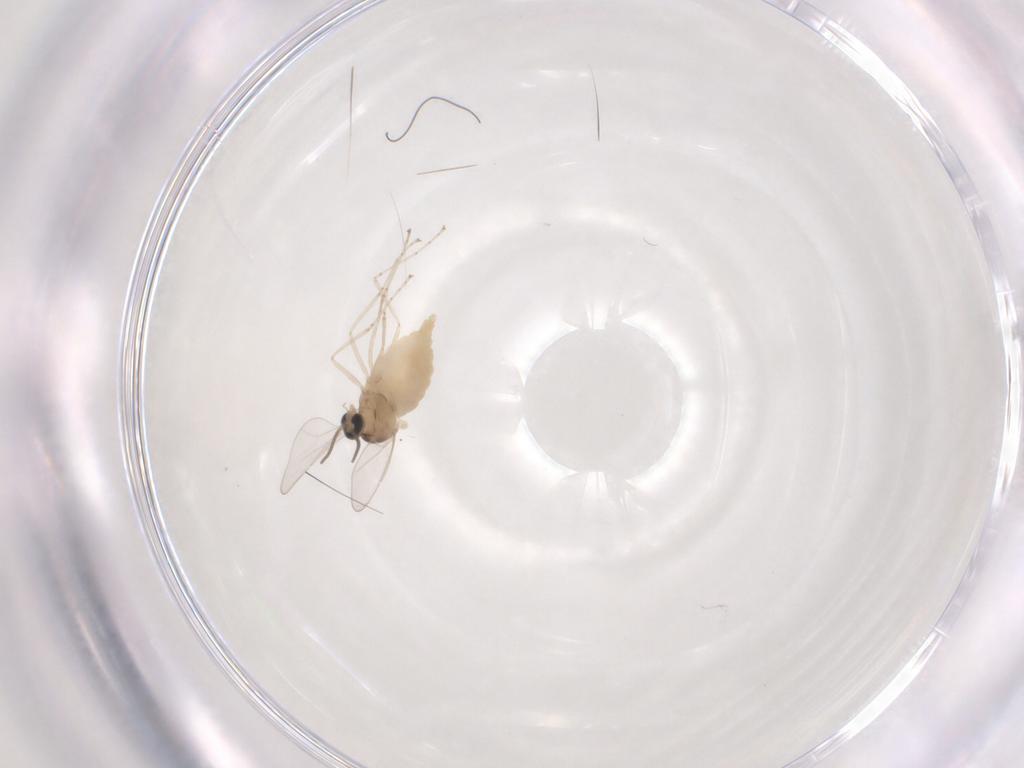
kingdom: Animalia
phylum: Arthropoda
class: Insecta
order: Diptera
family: Cecidomyiidae
